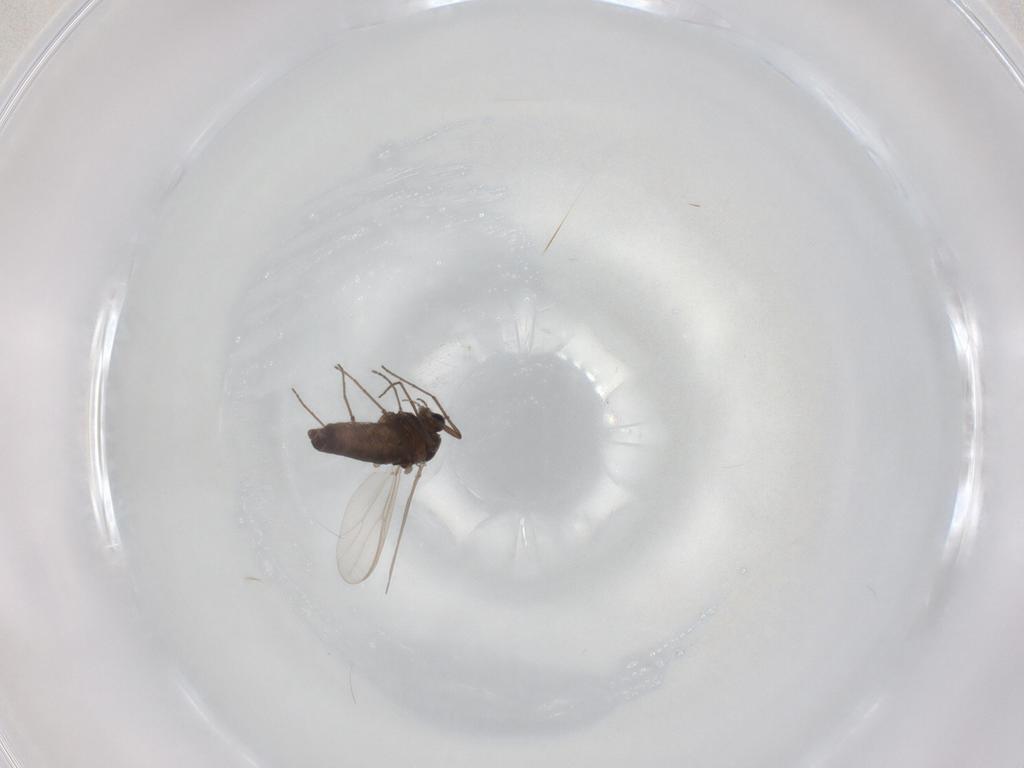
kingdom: Animalia
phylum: Arthropoda
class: Insecta
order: Diptera
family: Chironomidae
